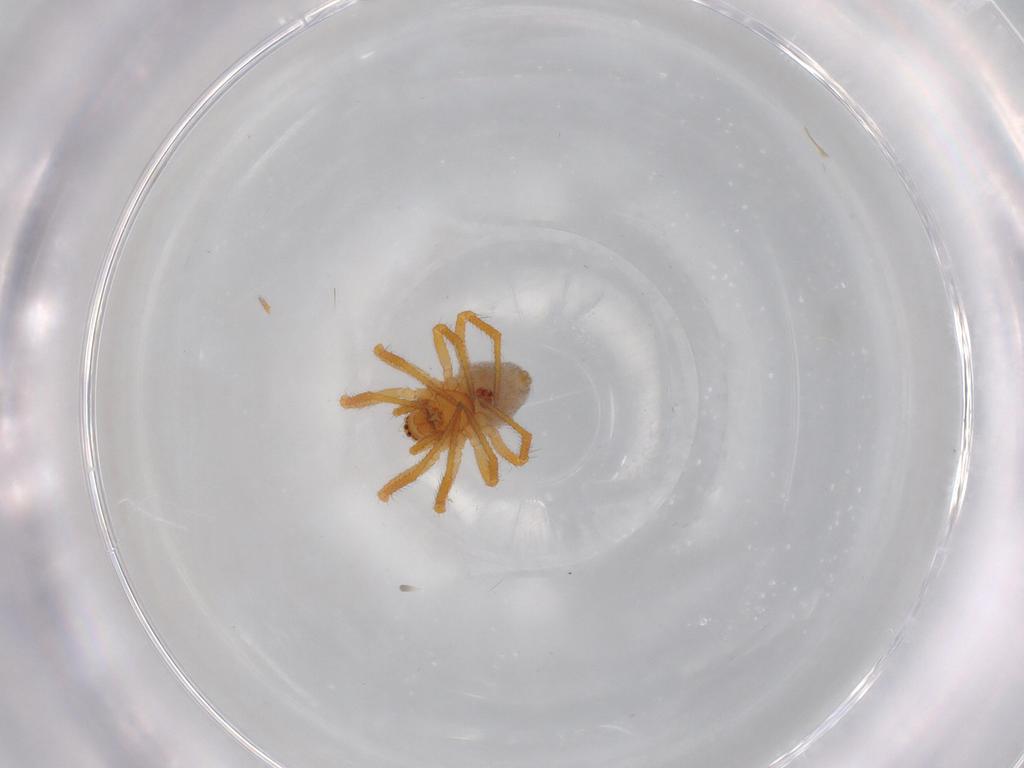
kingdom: Animalia
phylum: Arthropoda
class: Arachnida
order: Araneae
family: Theridiidae
